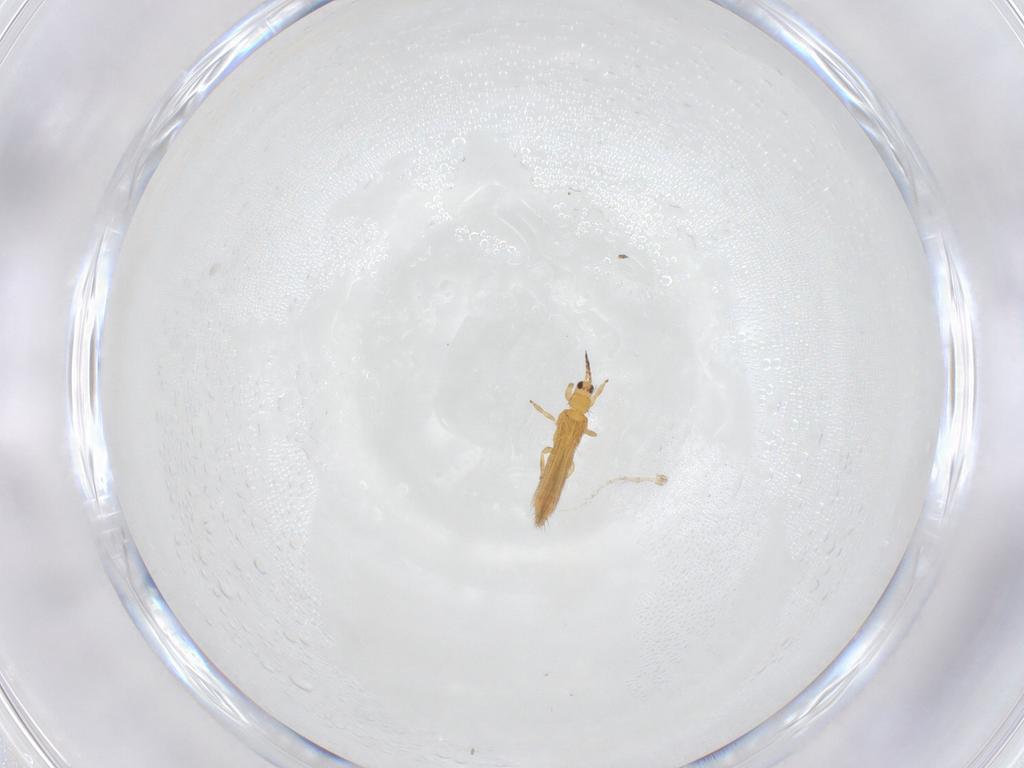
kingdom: Animalia
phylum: Arthropoda
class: Insecta
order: Thysanoptera
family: Thripidae
